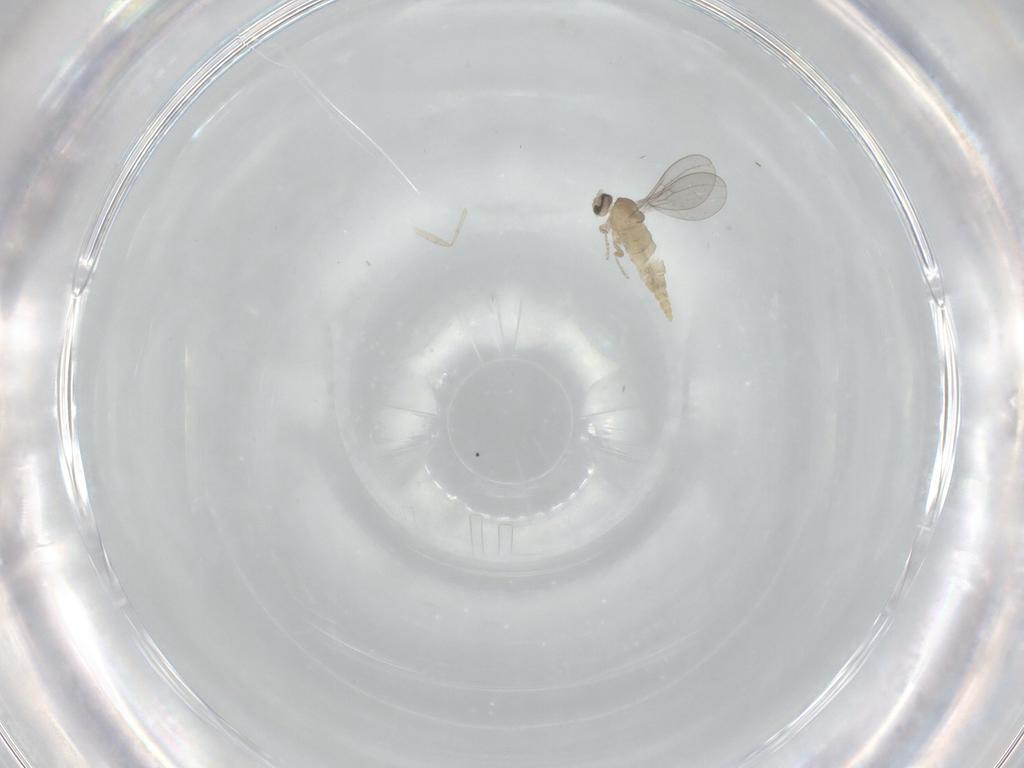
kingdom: Animalia
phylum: Arthropoda
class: Insecta
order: Diptera
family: Cecidomyiidae
